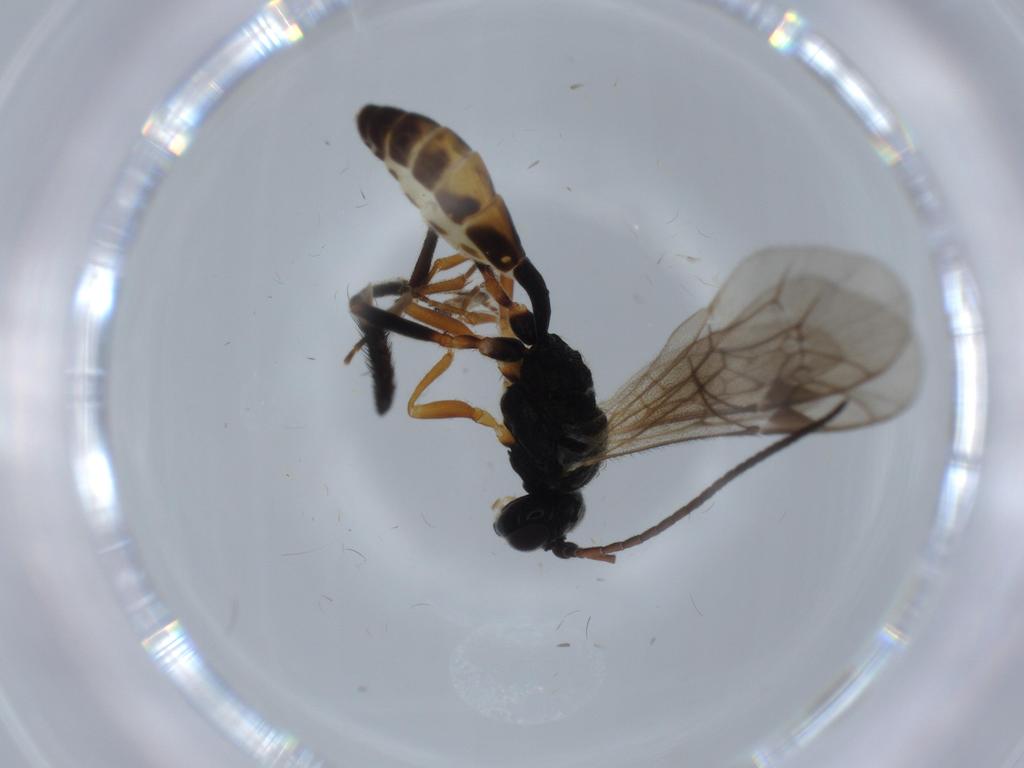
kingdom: Animalia
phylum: Arthropoda
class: Insecta
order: Hymenoptera
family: Ichneumonidae
